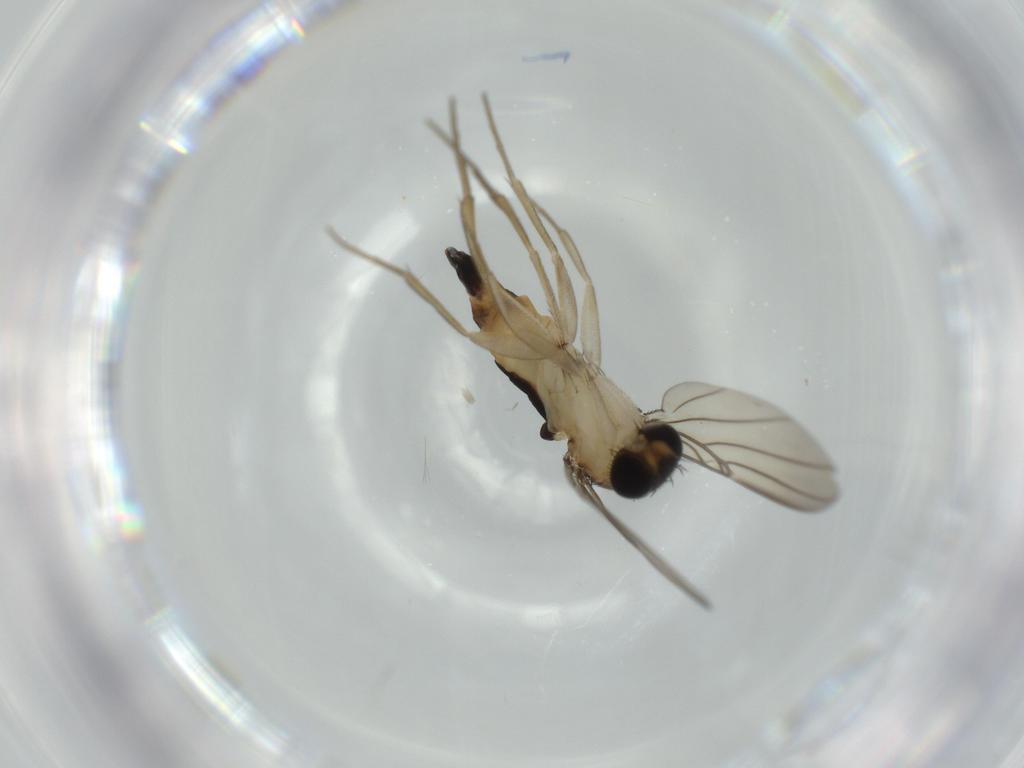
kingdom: Animalia
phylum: Arthropoda
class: Insecta
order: Diptera
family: Phoridae
